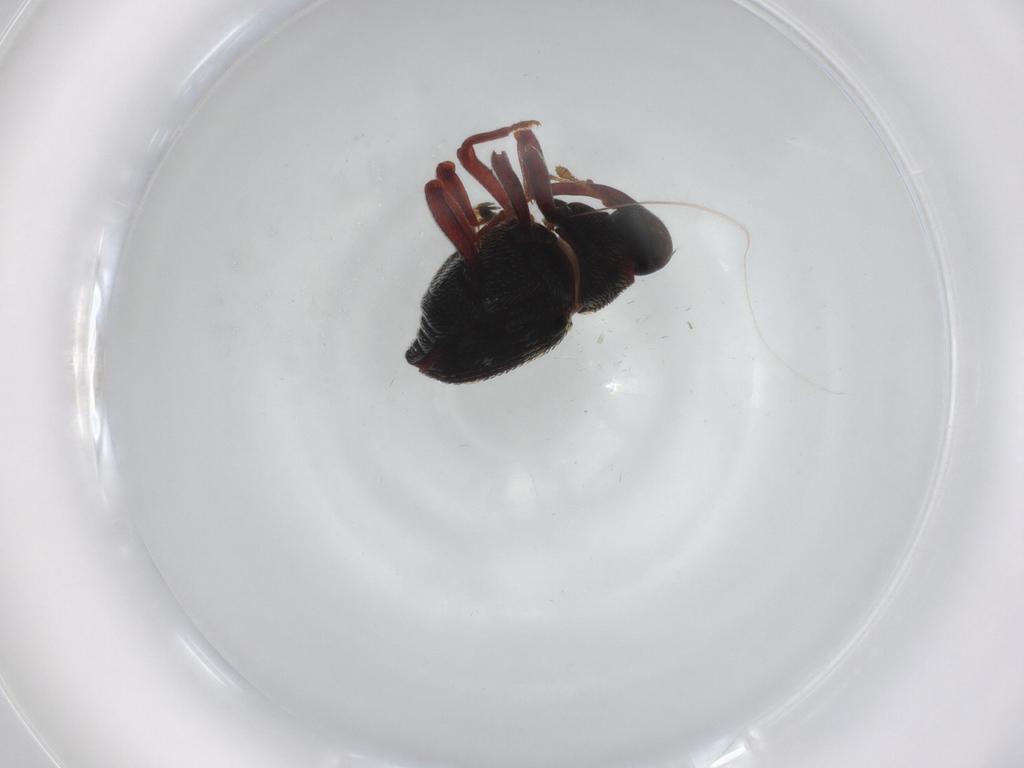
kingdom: Animalia
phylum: Arthropoda
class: Insecta
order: Coleoptera
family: Curculionidae
